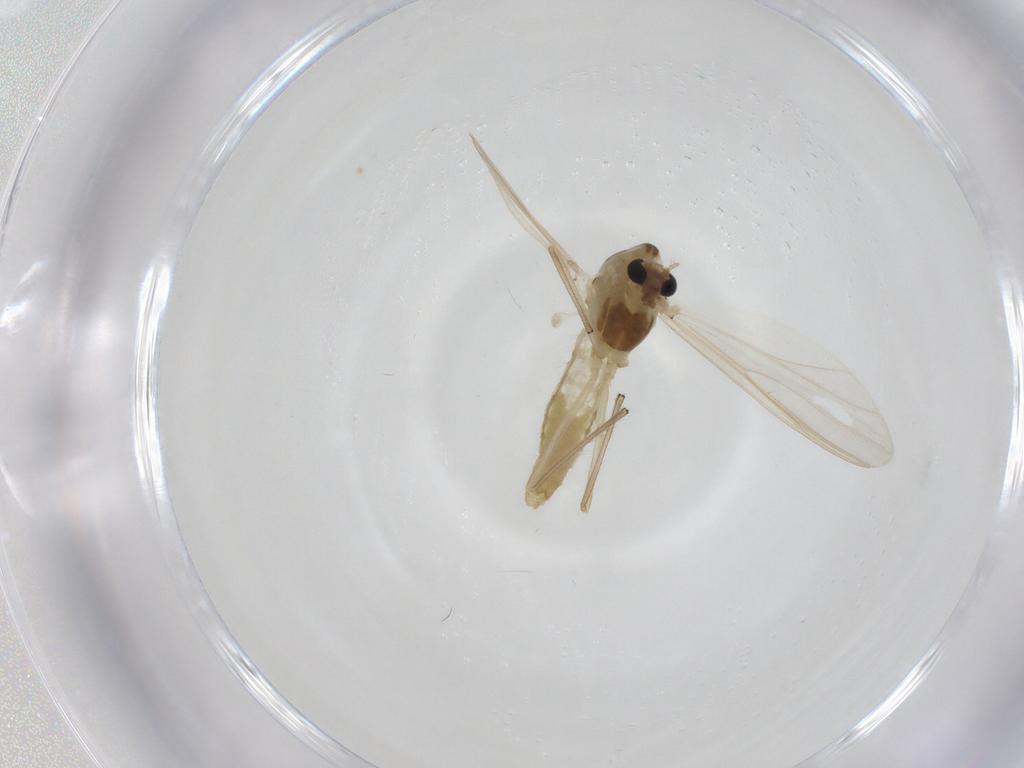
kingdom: Animalia
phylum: Arthropoda
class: Insecta
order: Diptera
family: Chironomidae
